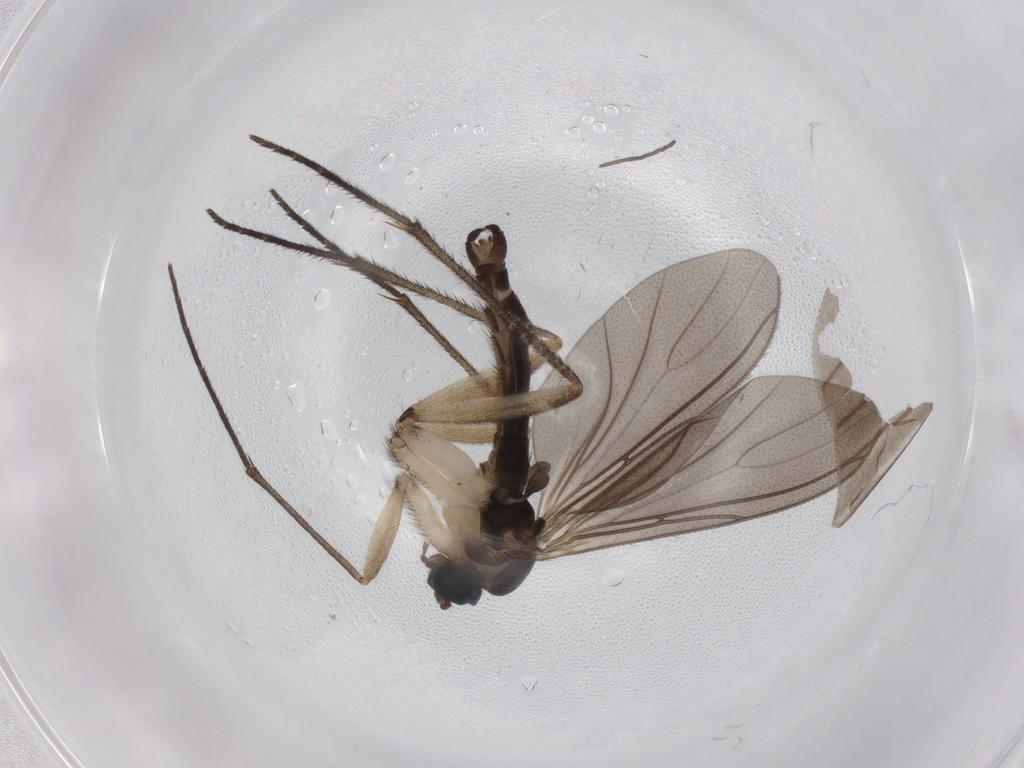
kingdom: Animalia
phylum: Arthropoda
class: Insecta
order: Diptera
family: Sciaridae
